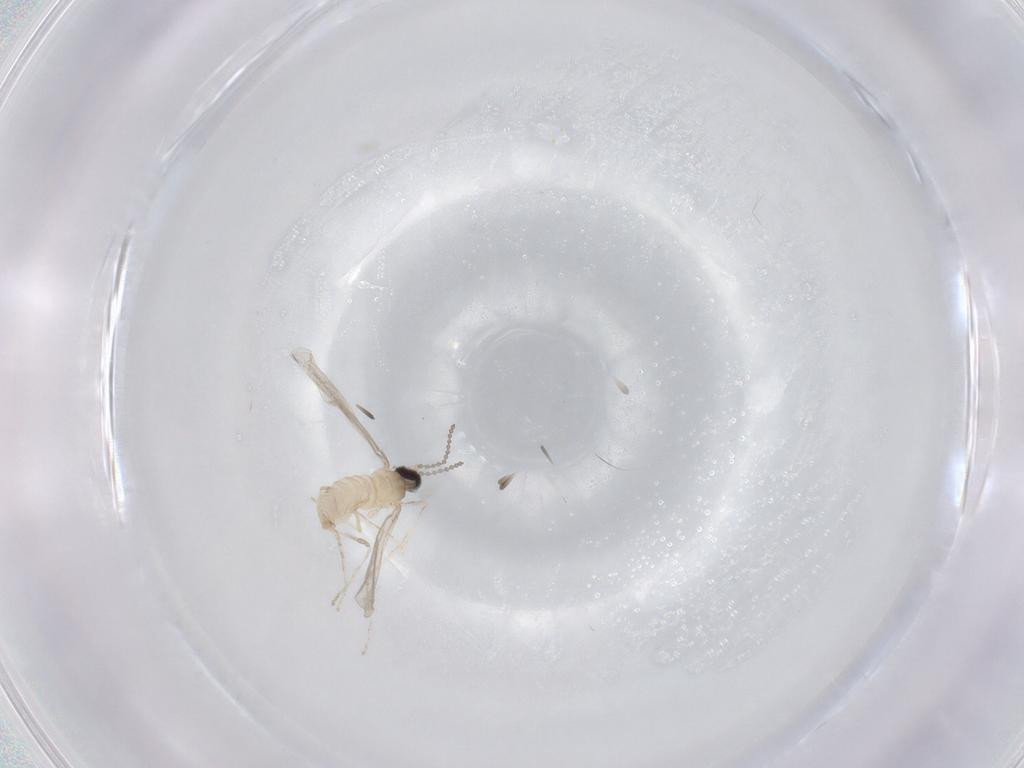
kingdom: Animalia
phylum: Arthropoda
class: Insecta
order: Diptera
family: Cecidomyiidae
